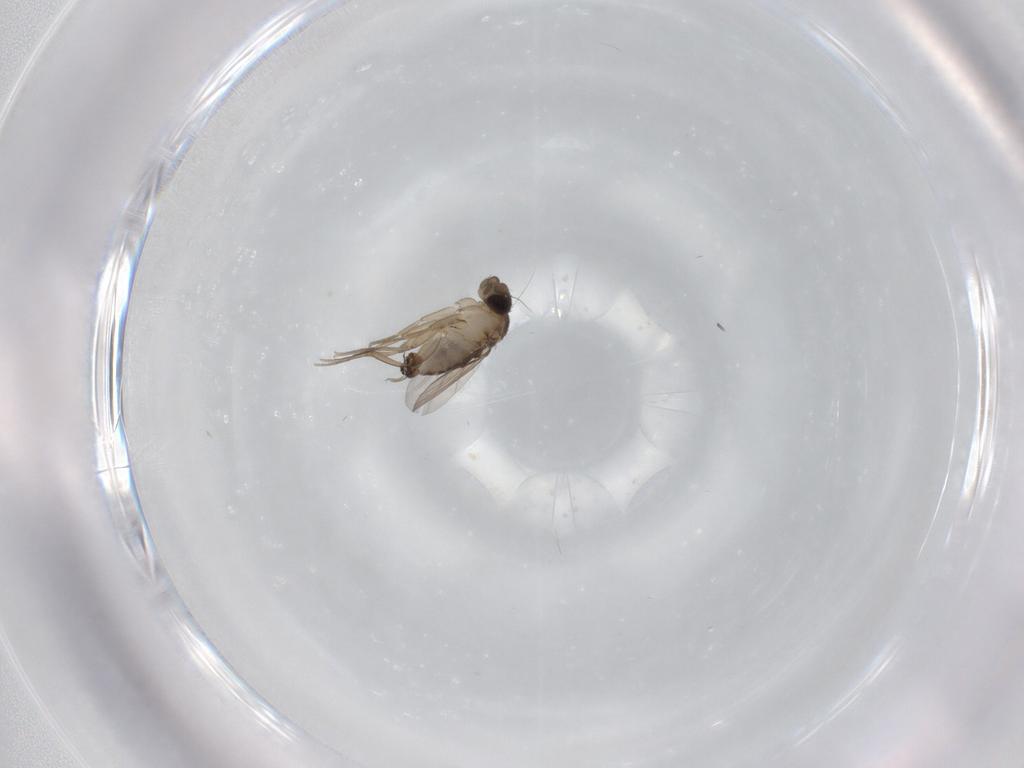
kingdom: Animalia
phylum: Arthropoda
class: Insecta
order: Diptera
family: Phoridae
